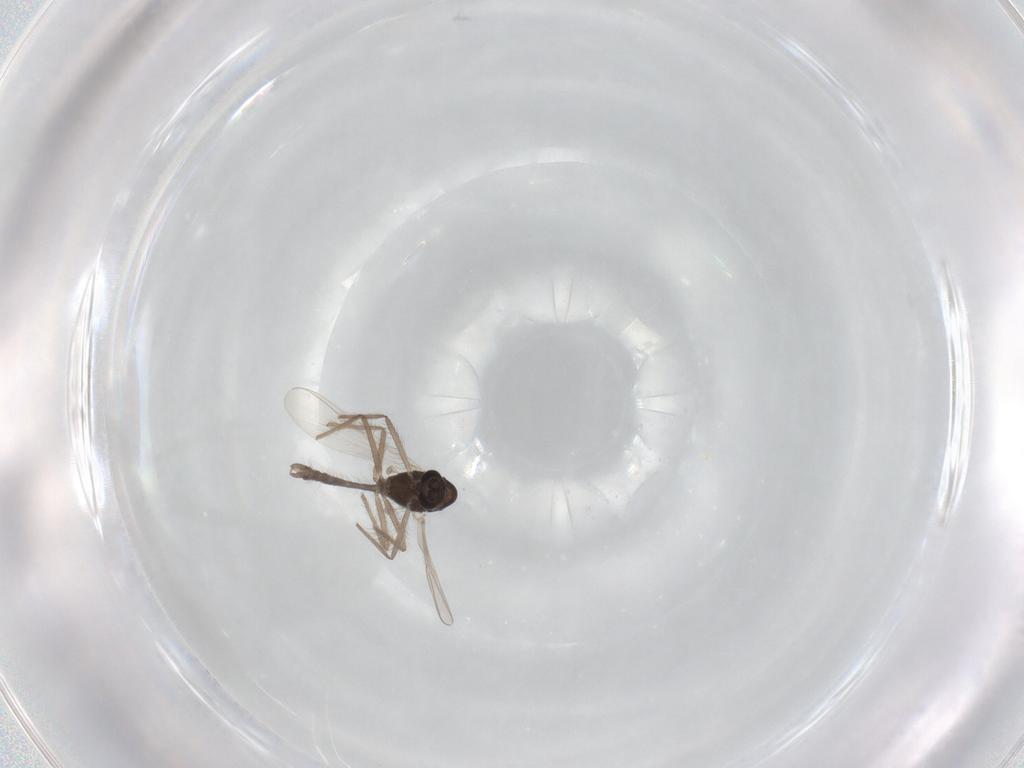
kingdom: Animalia
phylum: Arthropoda
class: Insecta
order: Diptera
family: Chironomidae
